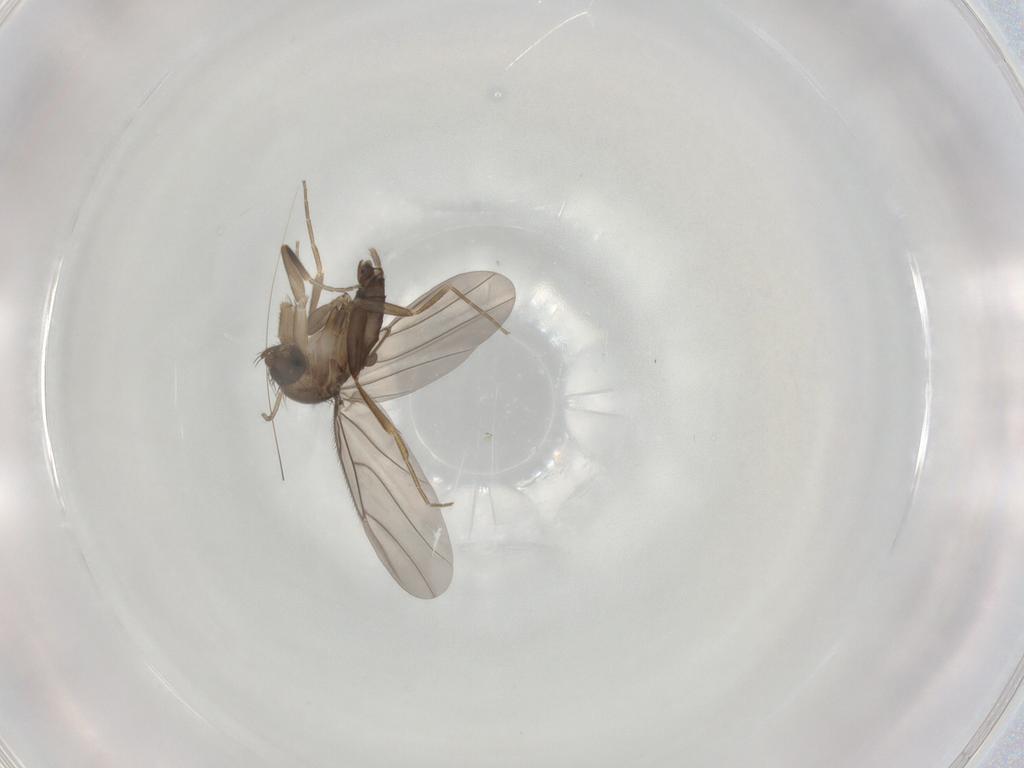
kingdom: Animalia
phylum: Arthropoda
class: Insecta
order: Diptera
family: Phoridae
